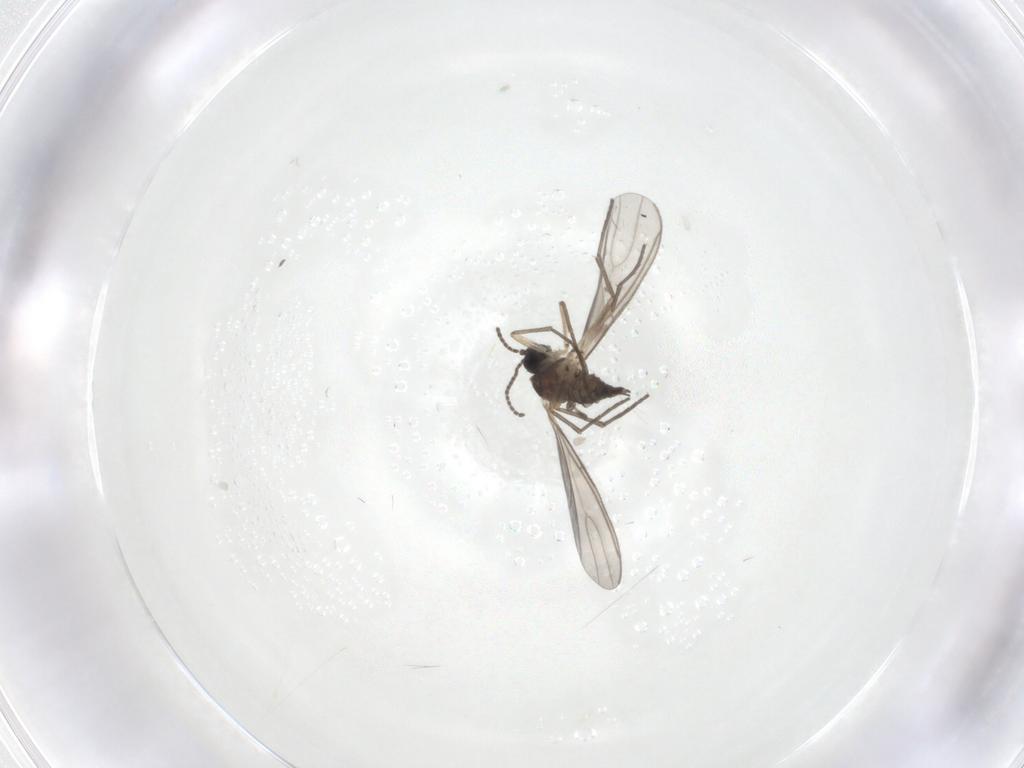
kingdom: Animalia
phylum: Arthropoda
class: Insecta
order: Diptera
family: Sciaridae
